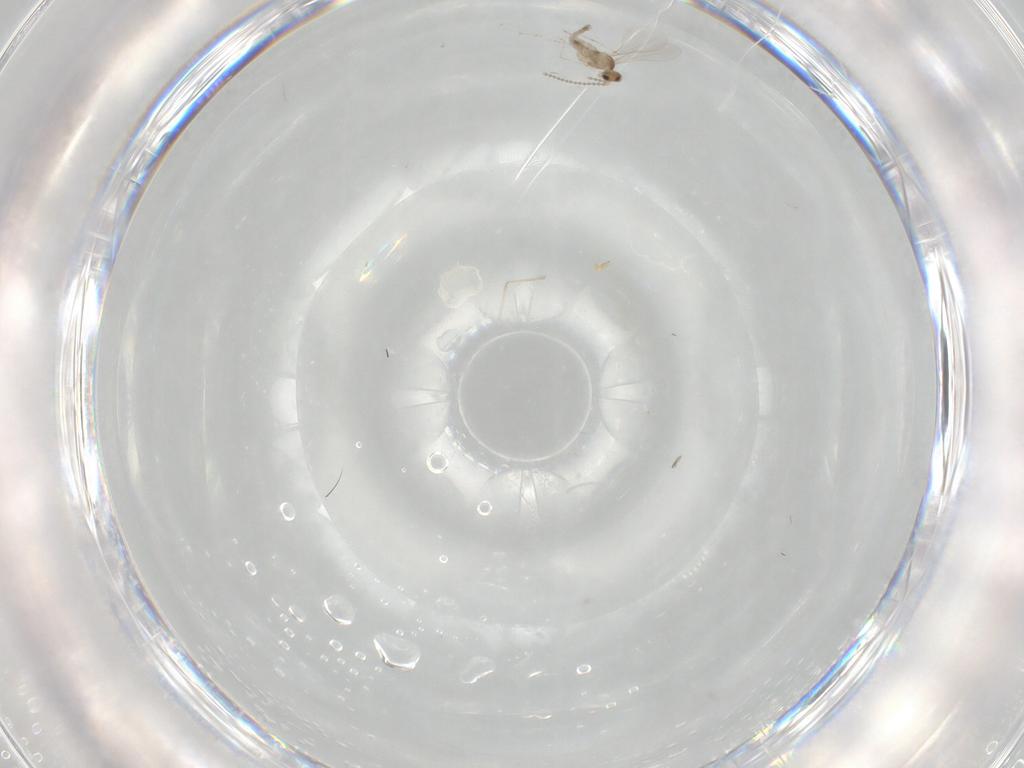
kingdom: Animalia
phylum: Arthropoda
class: Insecta
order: Diptera
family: Cecidomyiidae
